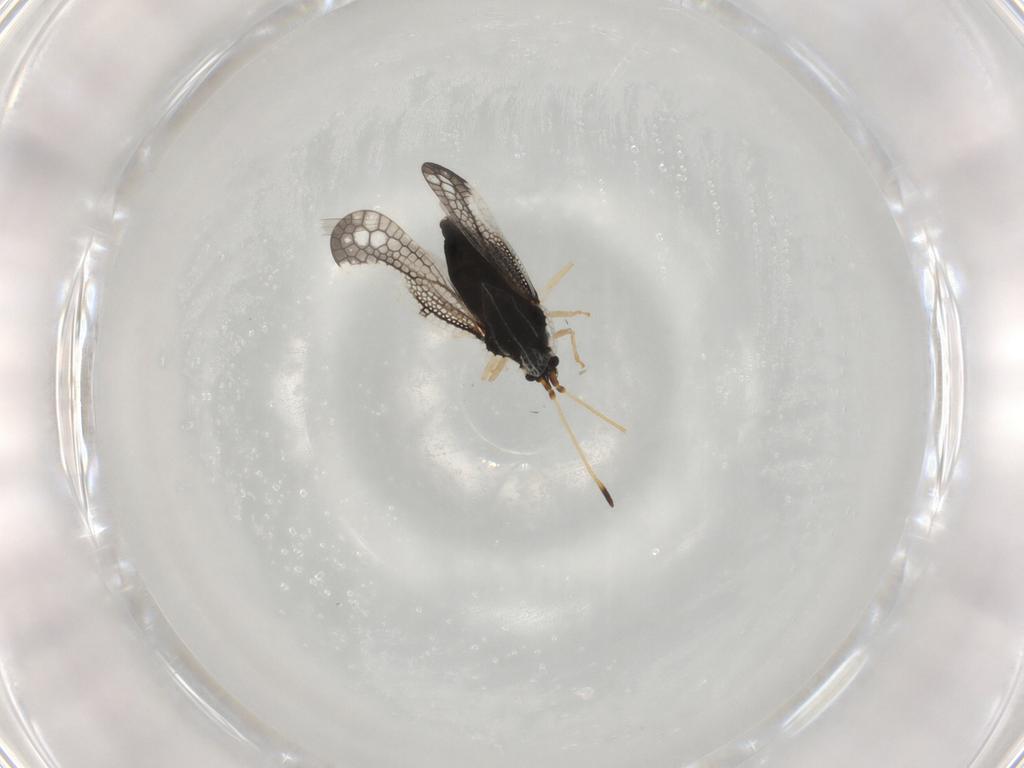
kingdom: Animalia
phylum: Arthropoda
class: Insecta
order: Hemiptera
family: Tingidae
